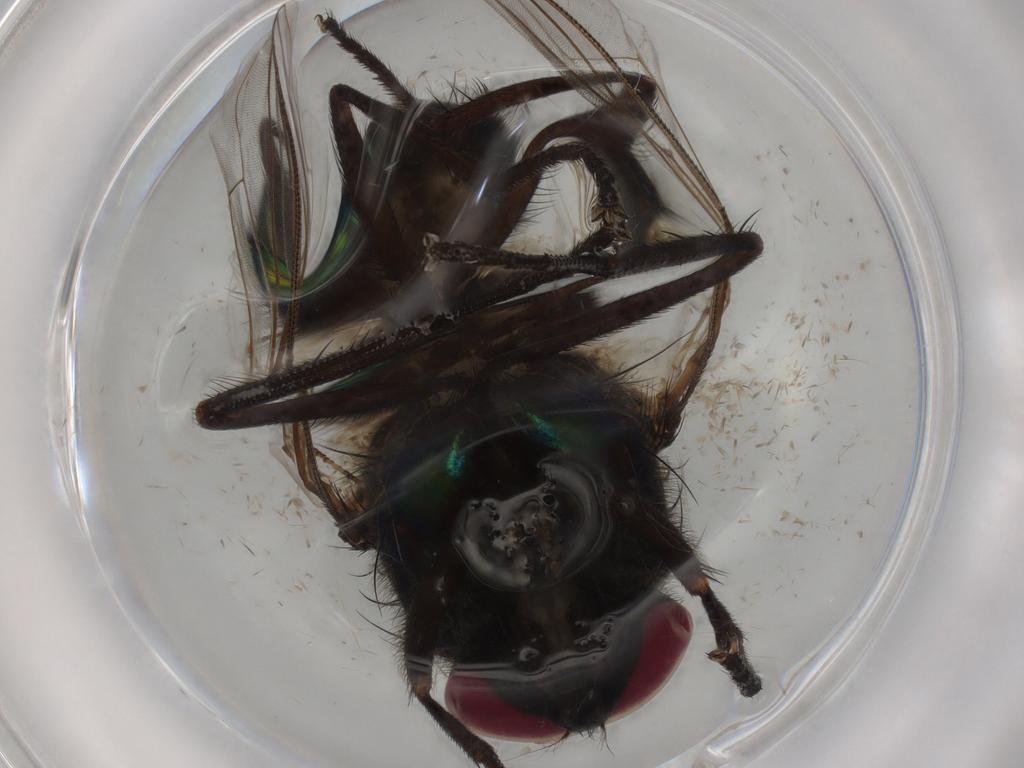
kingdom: Animalia
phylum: Arthropoda
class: Insecta
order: Diptera
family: Muscidae
